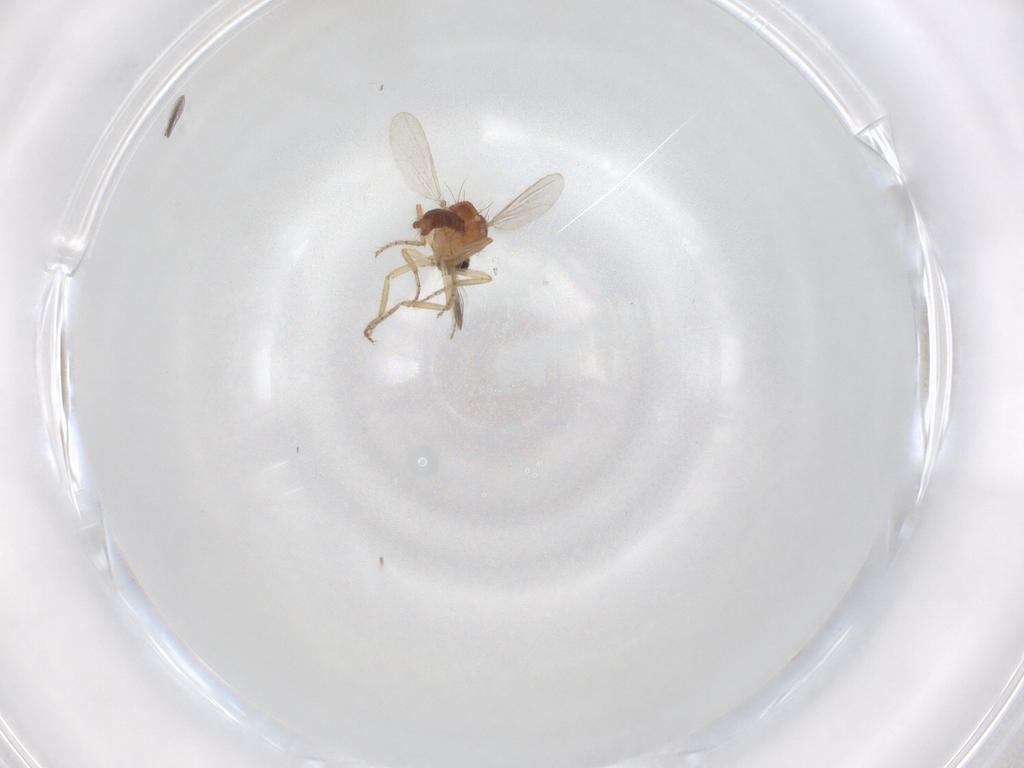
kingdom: Animalia
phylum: Arthropoda
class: Insecta
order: Diptera
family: Ceratopogonidae
